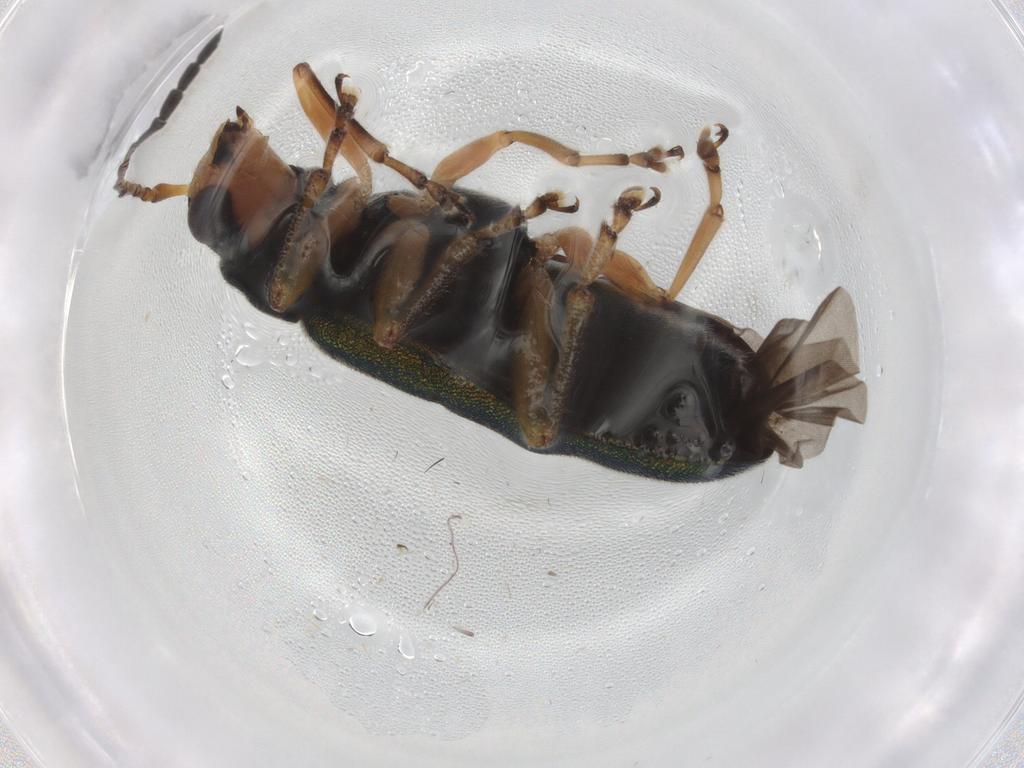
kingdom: Animalia
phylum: Arthropoda
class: Insecta
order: Coleoptera
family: Chrysomelidae
